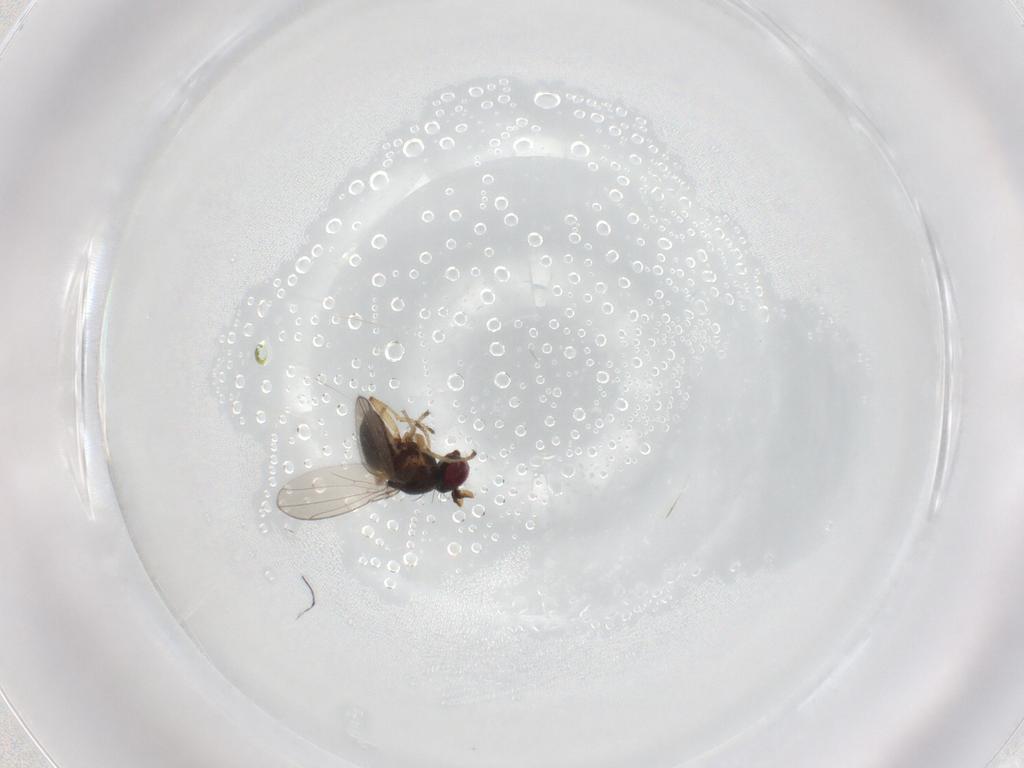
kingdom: Animalia
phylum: Arthropoda
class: Insecta
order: Diptera
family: Ephydridae
